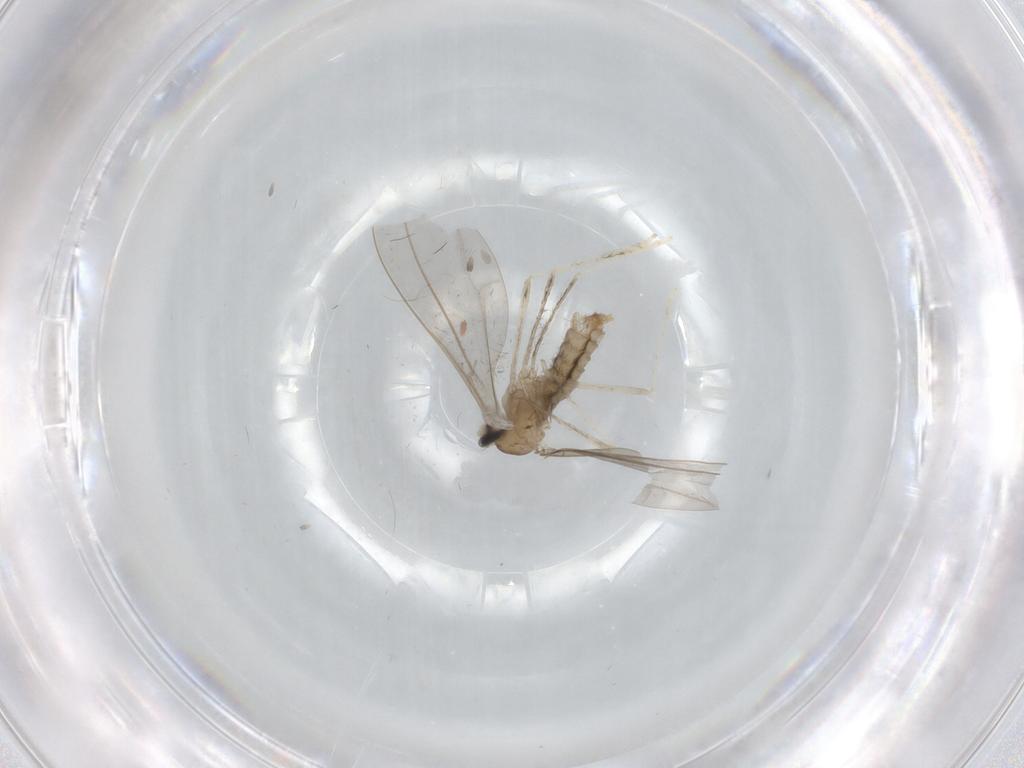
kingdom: Animalia
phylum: Arthropoda
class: Insecta
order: Diptera
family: Cecidomyiidae
